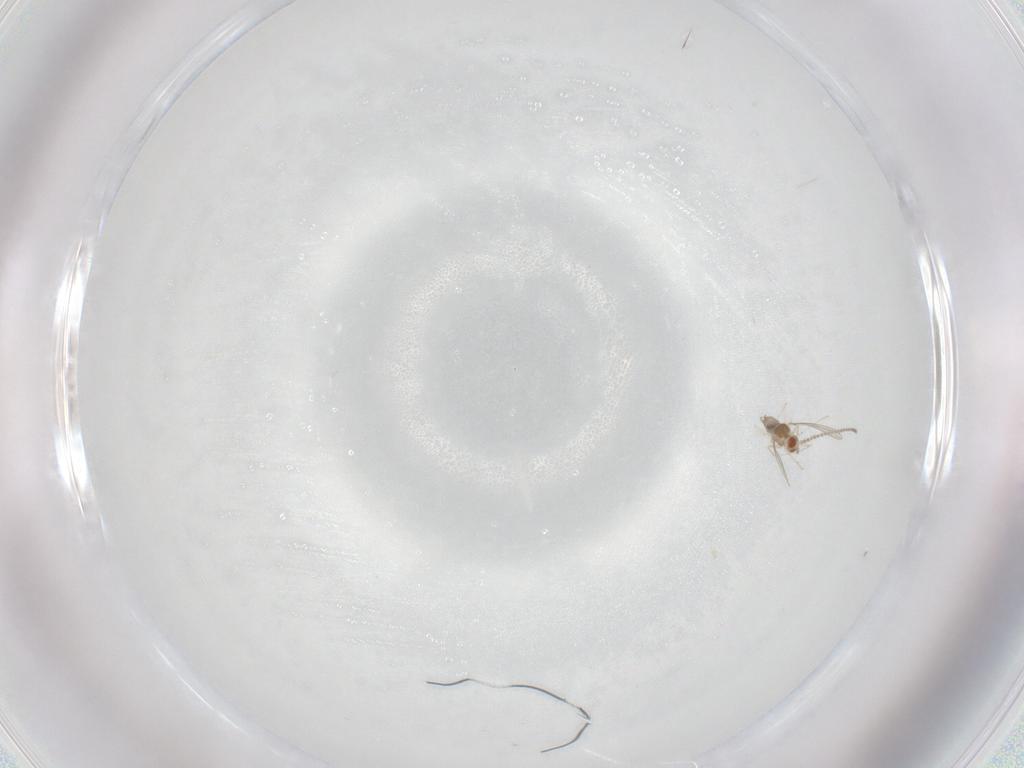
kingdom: Animalia
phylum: Arthropoda
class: Insecta
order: Diptera
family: Cecidomyiidae
